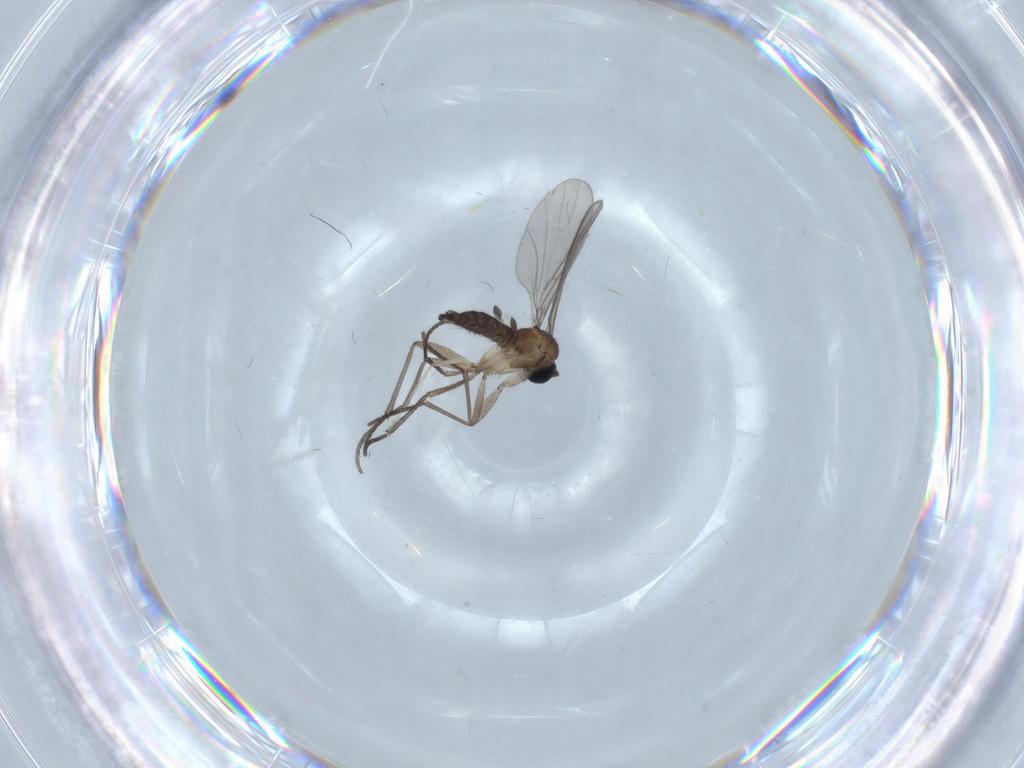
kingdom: Animalia
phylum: Arthropoda
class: Insecta
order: Diptera
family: Sciaridae
